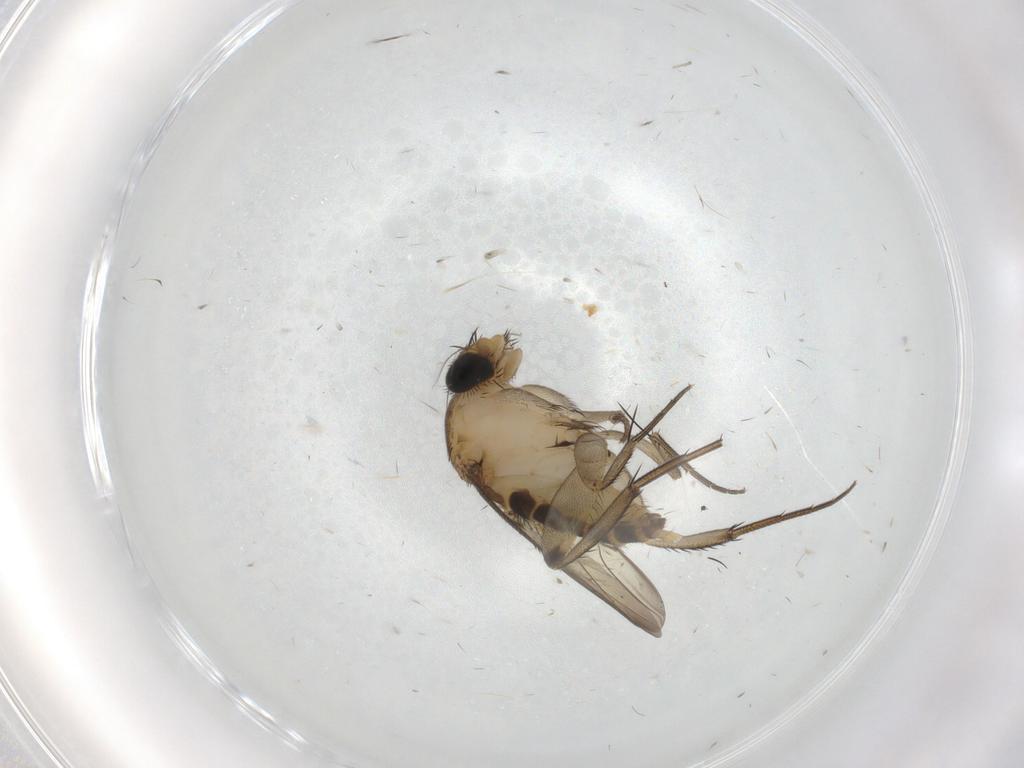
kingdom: Animalia
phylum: Arthropoda
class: Insecta
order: Diptera
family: Phoridae
